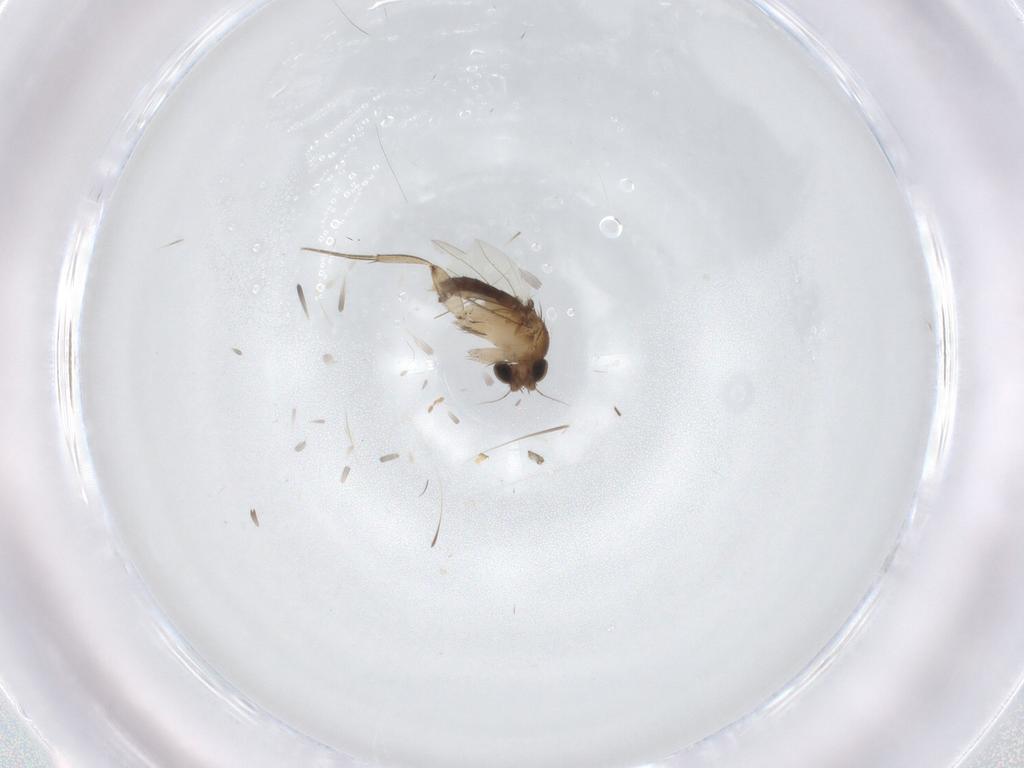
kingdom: Animalia
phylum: Arthropoda
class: Insecta
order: Diptera
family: Phoridae
